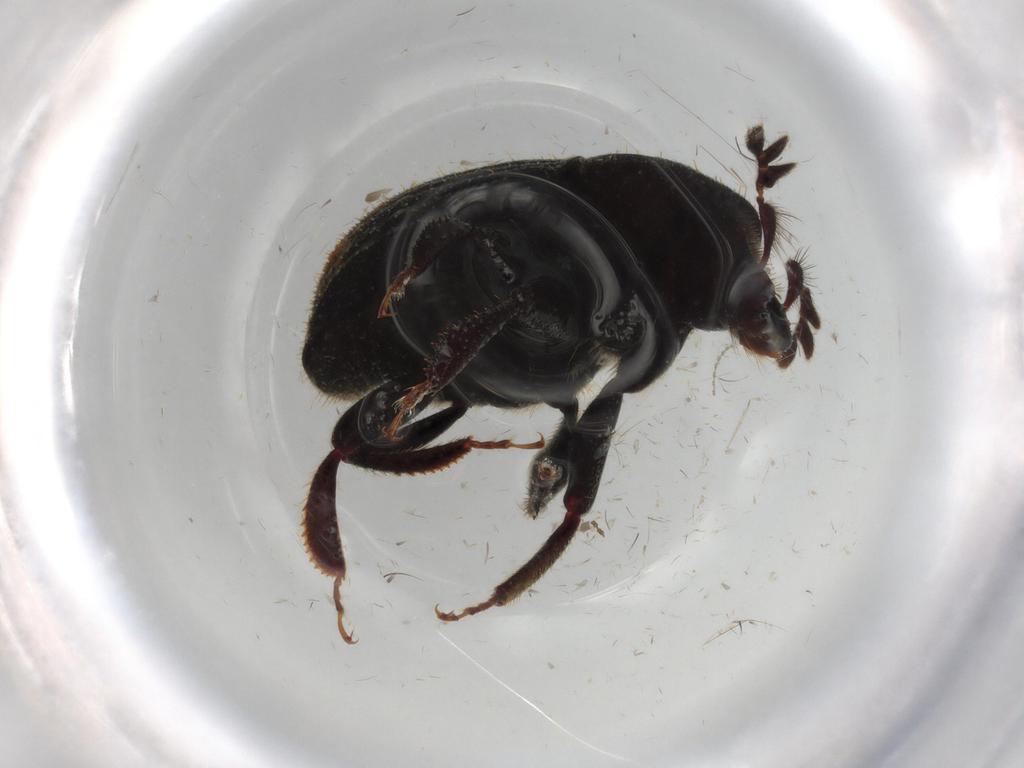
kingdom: Animalia
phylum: Arthropoda
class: Insecta
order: Coleoptera
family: Curculionidae
